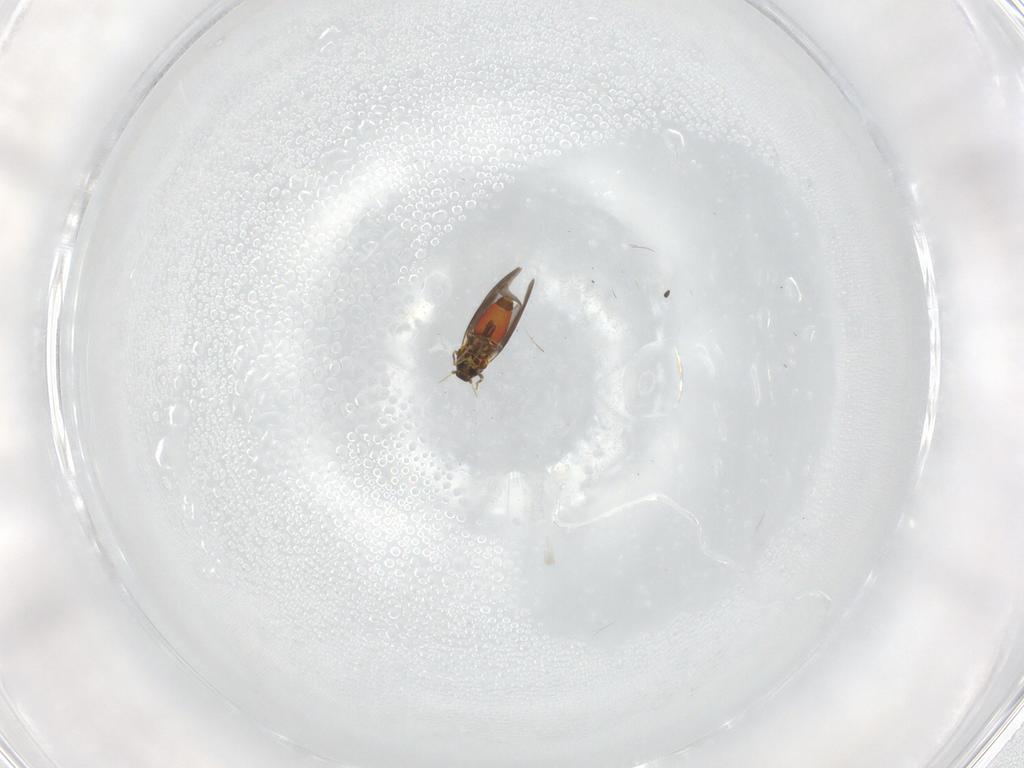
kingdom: Animalia
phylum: Arthropoda
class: Insecta
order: Hemiptera
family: Aleyrodidae
